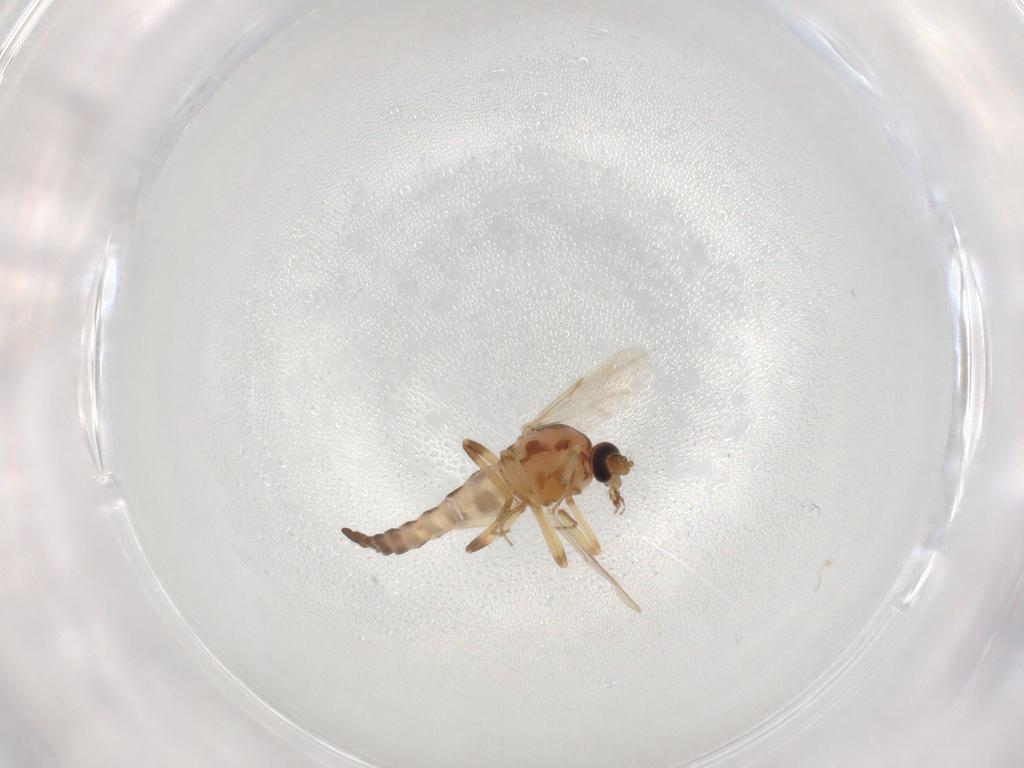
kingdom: Animalia
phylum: Arthropoda
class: Insecta
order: Diptera
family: Ceratopogonidae
